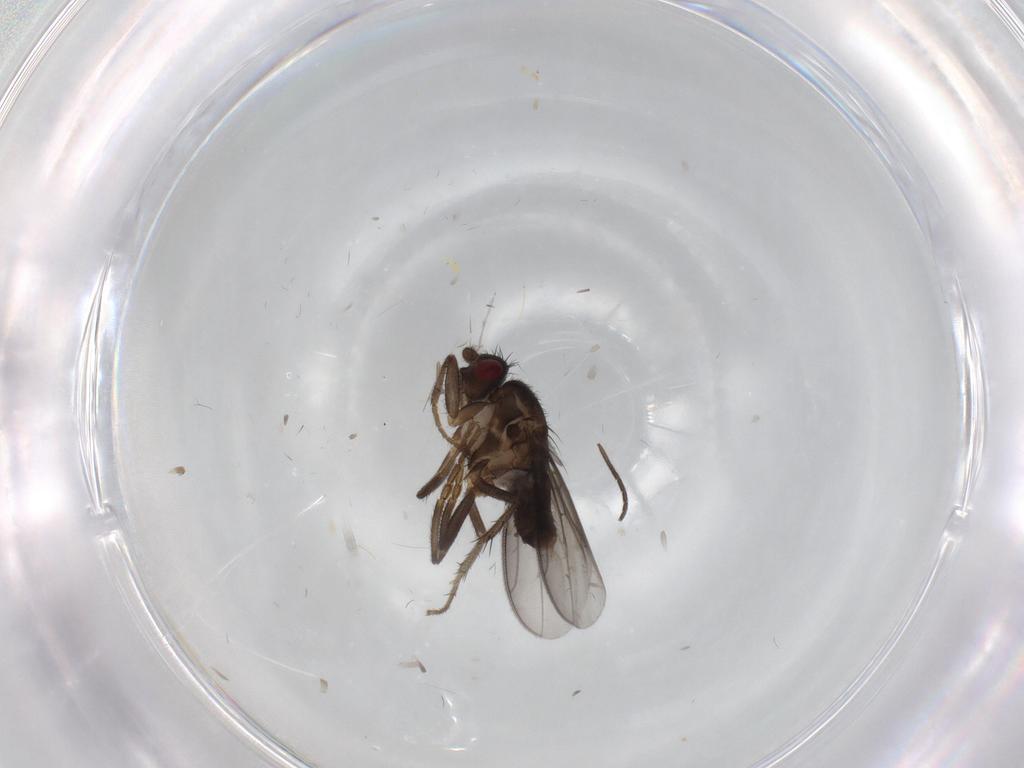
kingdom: Animalia
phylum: Arthropoda
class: Insecta
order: Diptera
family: Sphaeroceridae
